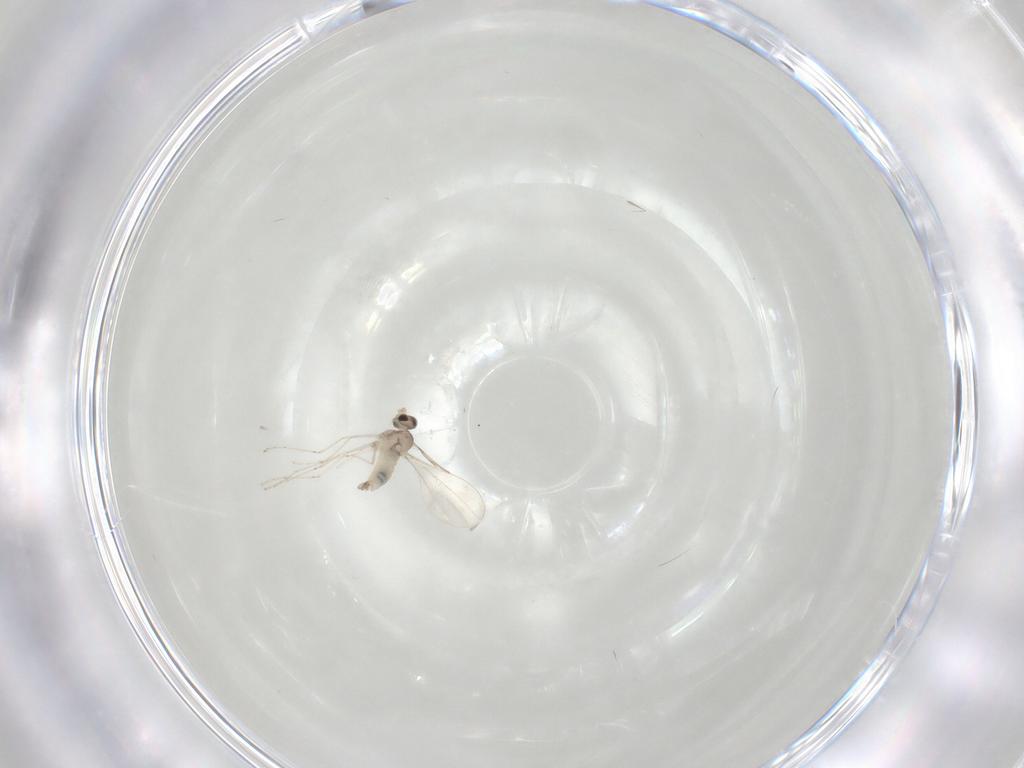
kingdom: Animalia
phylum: Arthropoda
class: Insecta
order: Diptera
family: Cecidomyiidae
